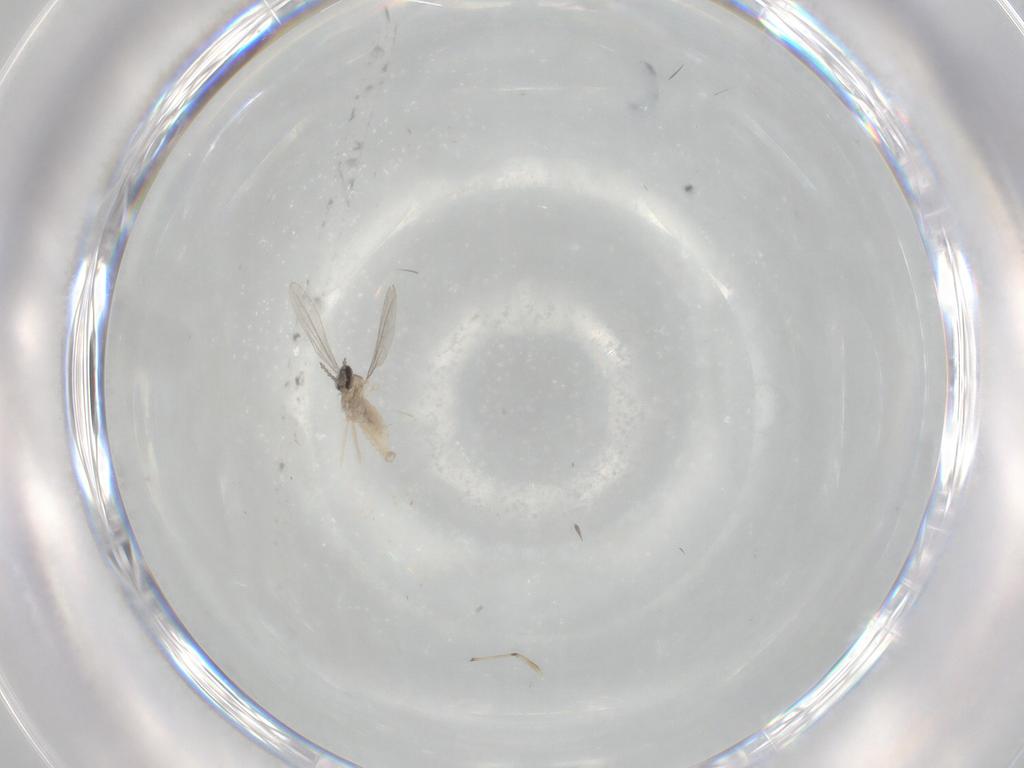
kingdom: Animalia
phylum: Arthropoda
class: Insecta
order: Diptera
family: Cecidomyiidae
